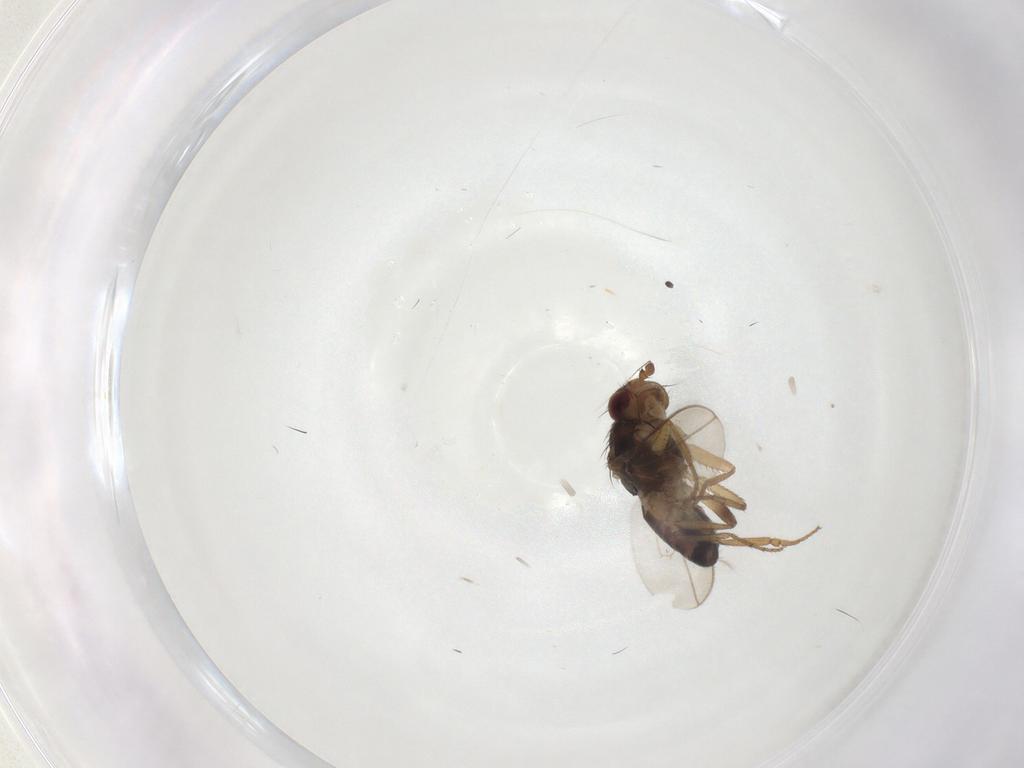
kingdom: Animalia
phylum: Arthropoda
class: Insecta
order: Diptera
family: Sphaeroceridae
